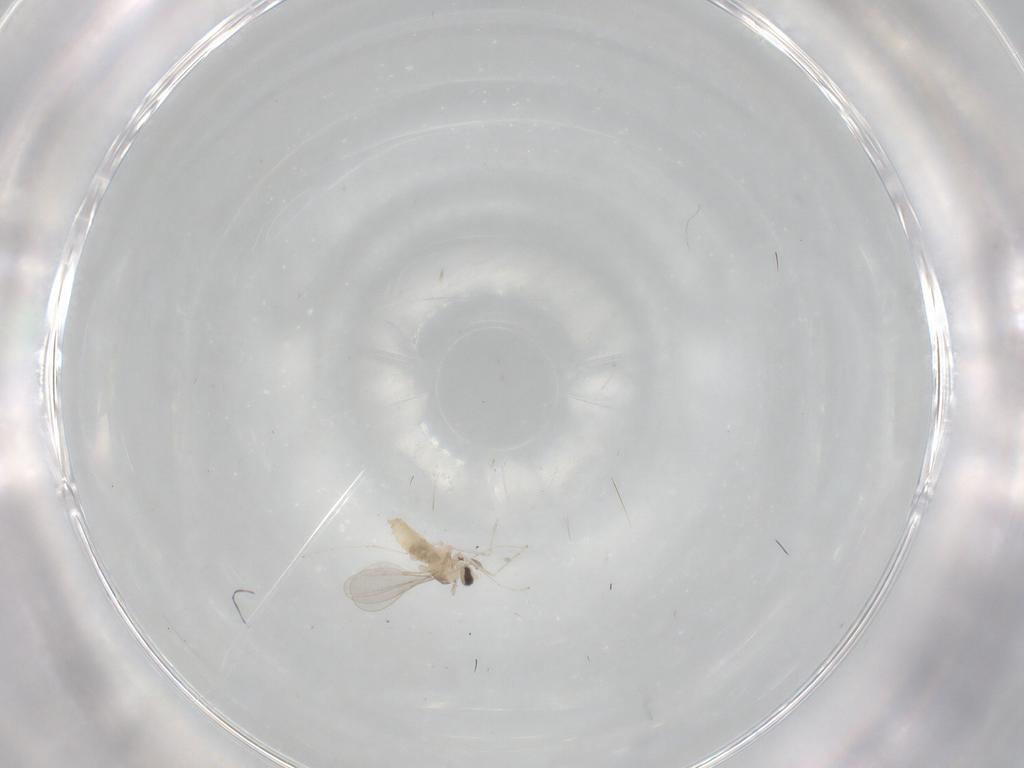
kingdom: Animalia
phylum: Arthropoda
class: Insecta
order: Diptera
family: Cecidomyiidae
